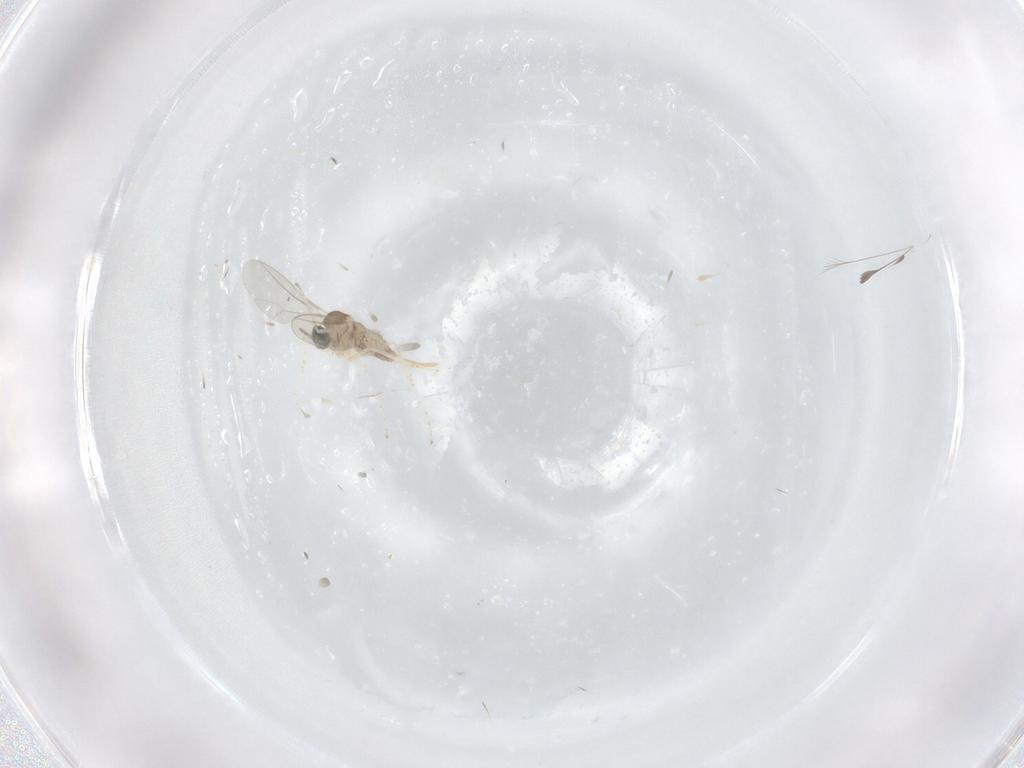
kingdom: Animalia
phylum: Arthropoda
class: Insecta
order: Diptera
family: Cecidomyiidae
